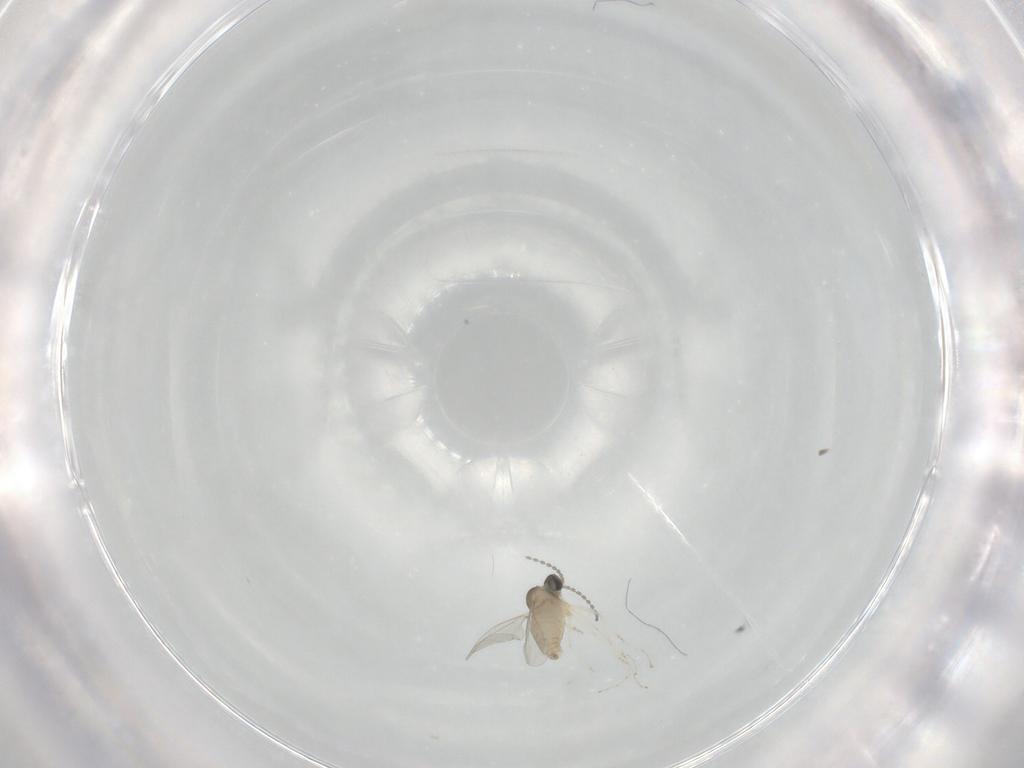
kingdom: Animalia
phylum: Arthropoda
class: Insecta
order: Diptera
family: Cecidomyiidae
